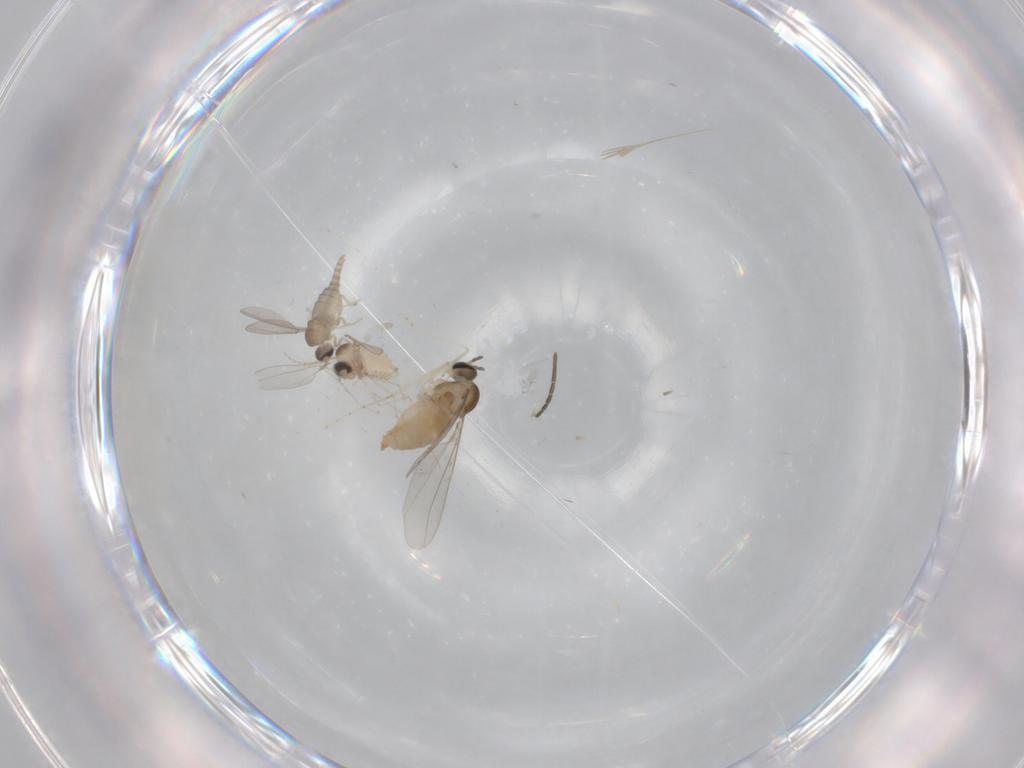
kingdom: Animalia
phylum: Arthropoda
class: Insecta
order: Diptera
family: Cecidomyiidae
